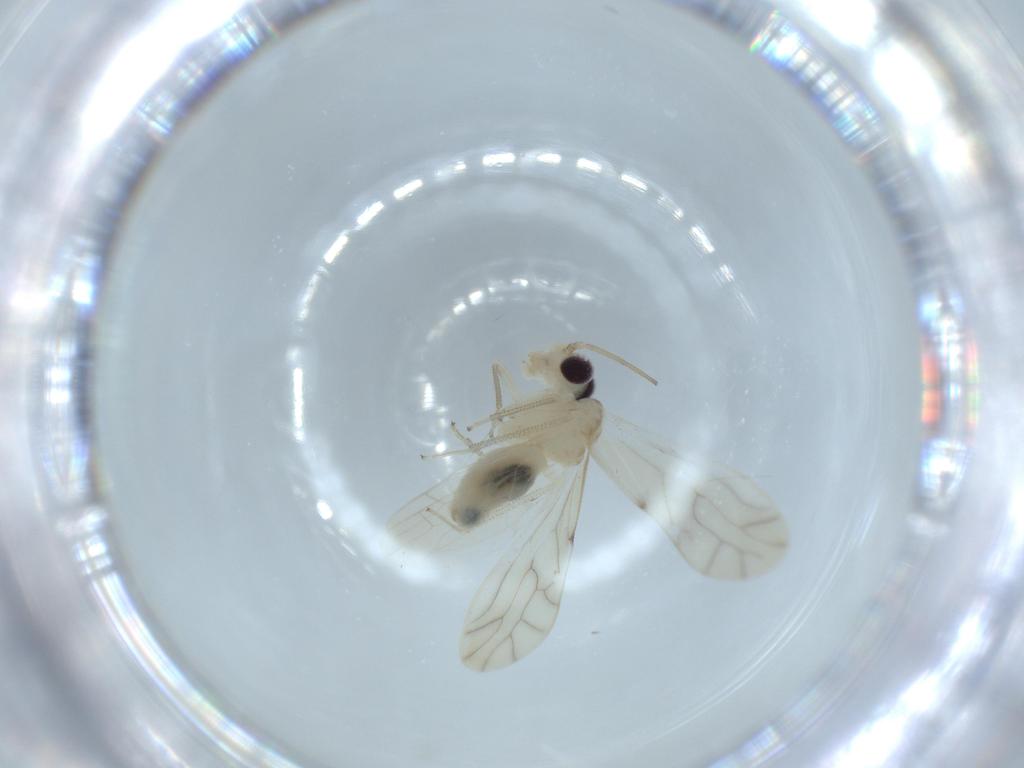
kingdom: Animalia
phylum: Arthropoda
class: Insecta
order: Psocodea
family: Caeciliusidae
